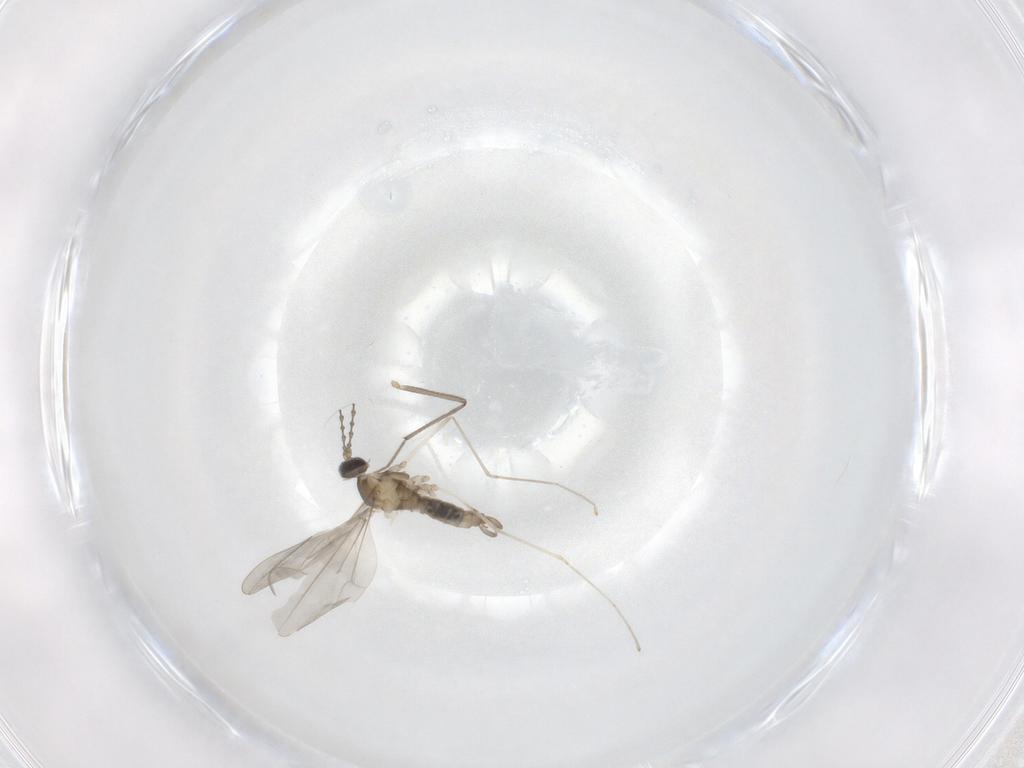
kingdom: Animalia
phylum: Arthropoda
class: Insecta
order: Diptera
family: Cecidomyiidae
